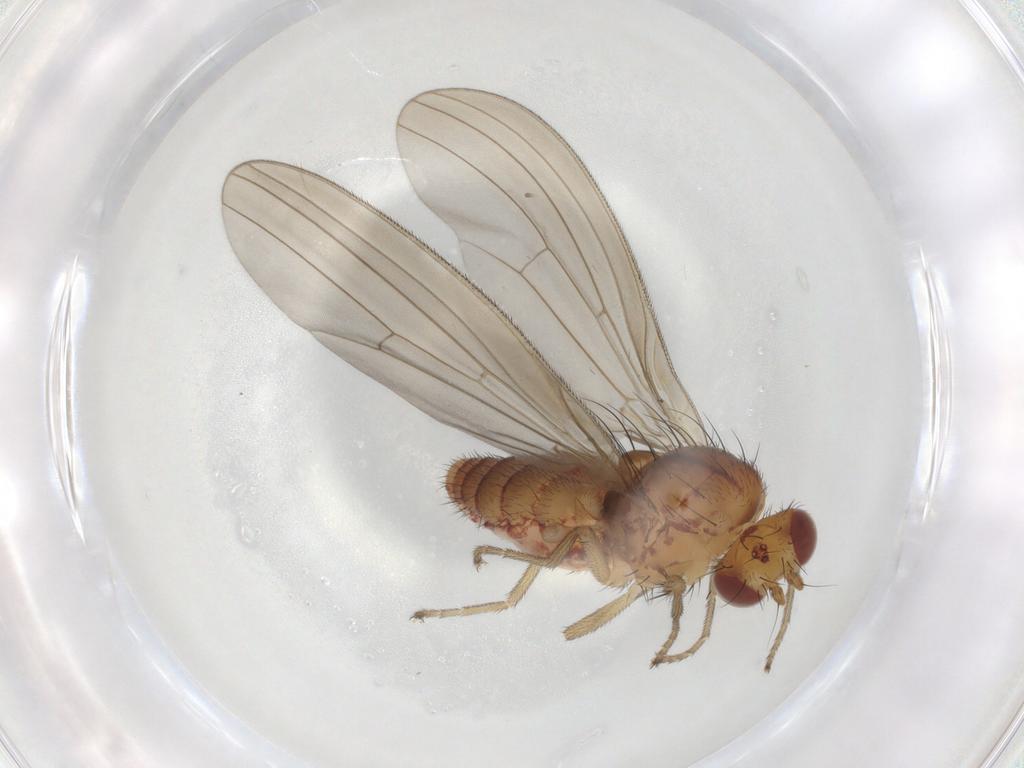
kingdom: Animalia
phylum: Arthropoda
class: Insecta
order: Diptera
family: Natalimyzidae
